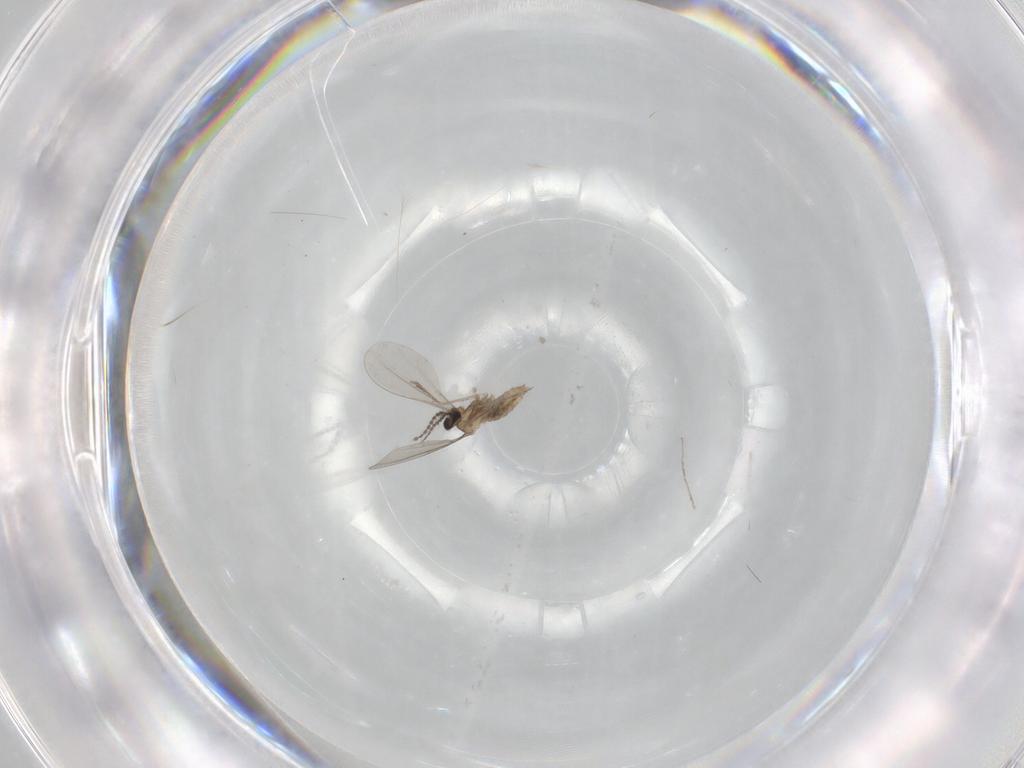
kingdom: Animalia
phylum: Arthropoda
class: Insecta
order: Diptera
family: Cecidomyiidae
